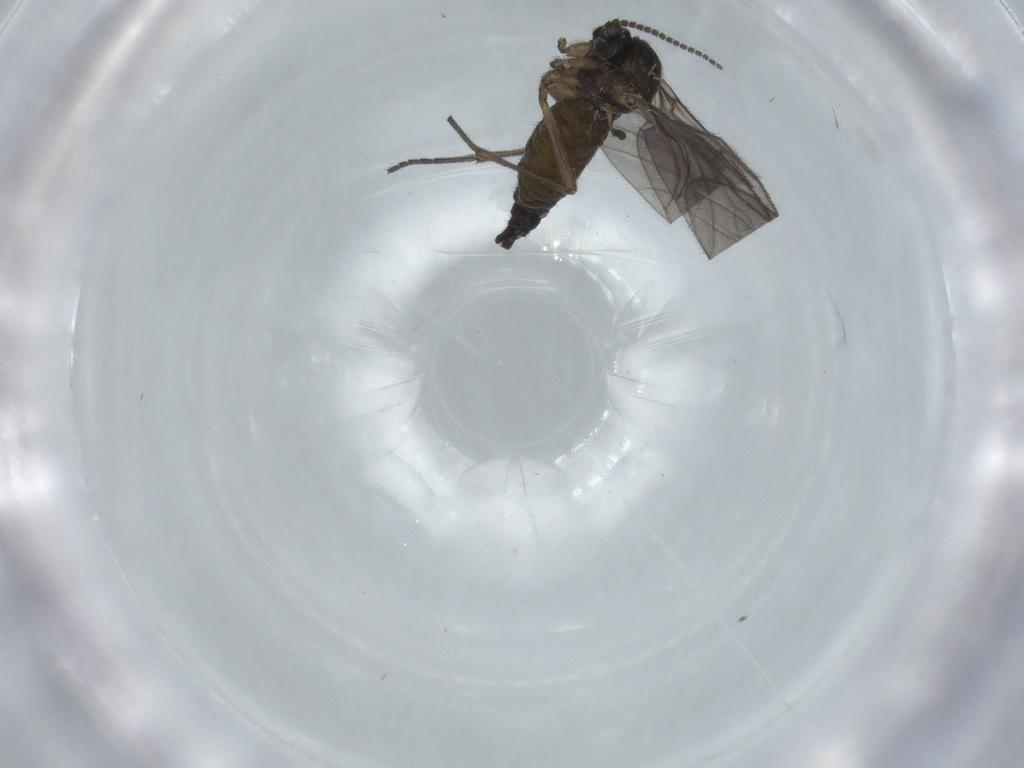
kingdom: Animalia
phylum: Arthropoda
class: Insecta
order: Diptera
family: Sciaridae
